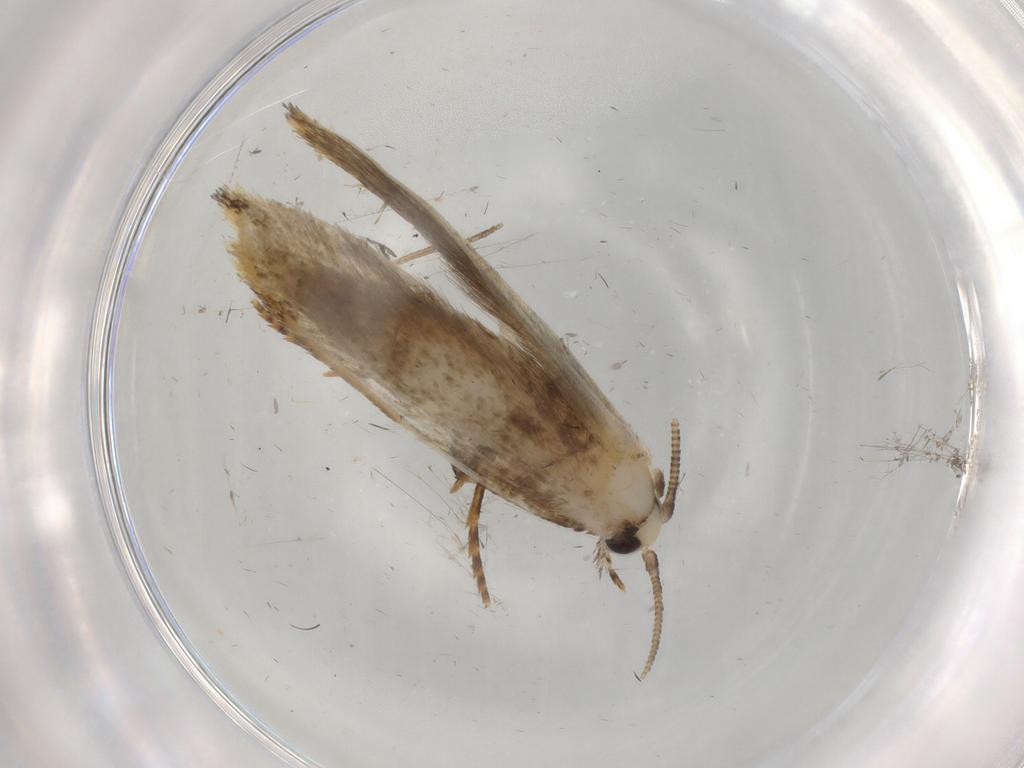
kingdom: Animalia
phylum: Arthropoda
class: Insecta
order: Lepidoptera
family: Tineidae
